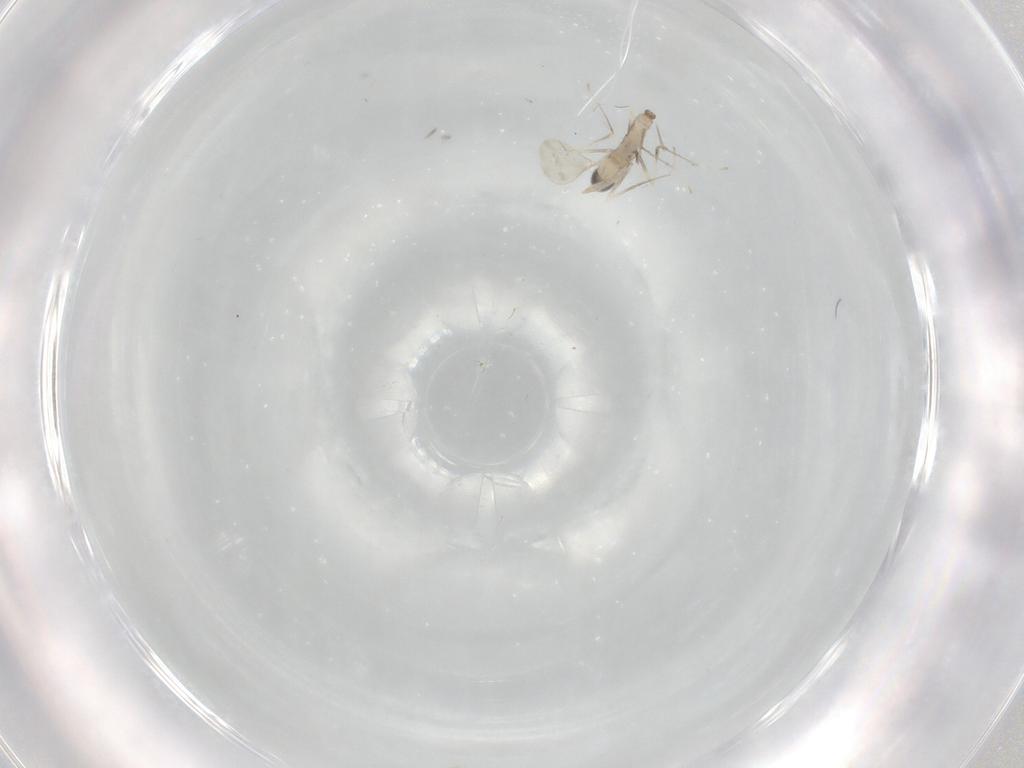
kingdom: Animalia
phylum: Arthropoda
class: Insecta
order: Diptera
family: Cecidomyiidae
